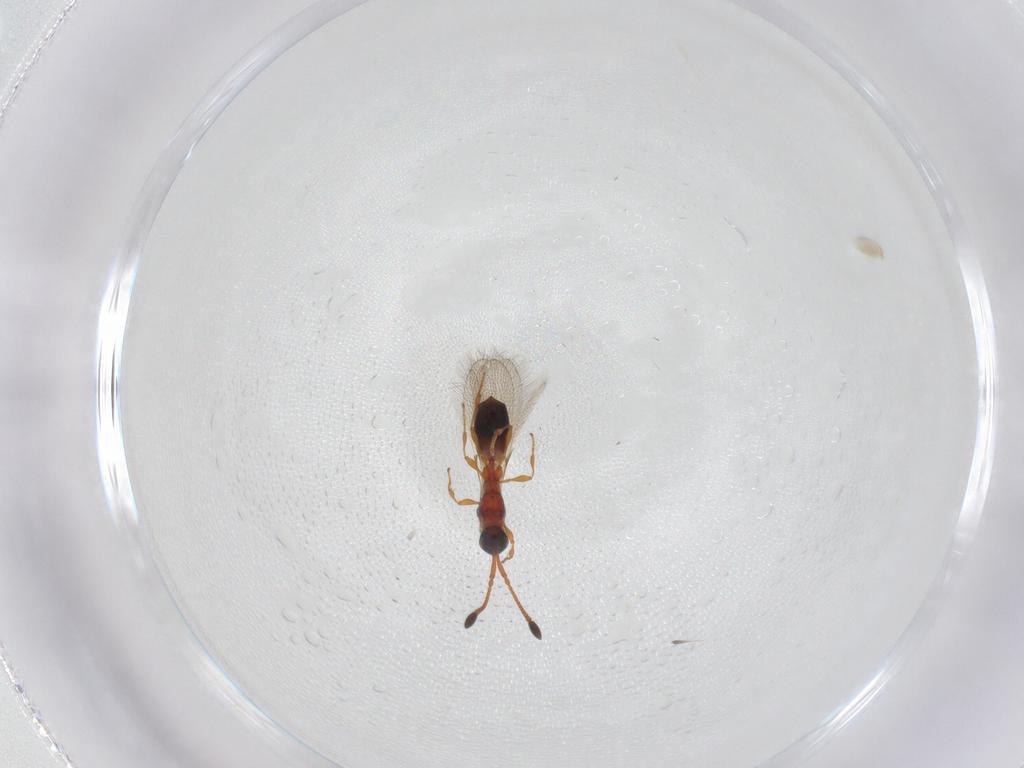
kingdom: Animalia
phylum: Arthropoda
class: Insecta
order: Hymenoptera
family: Diapriidae
